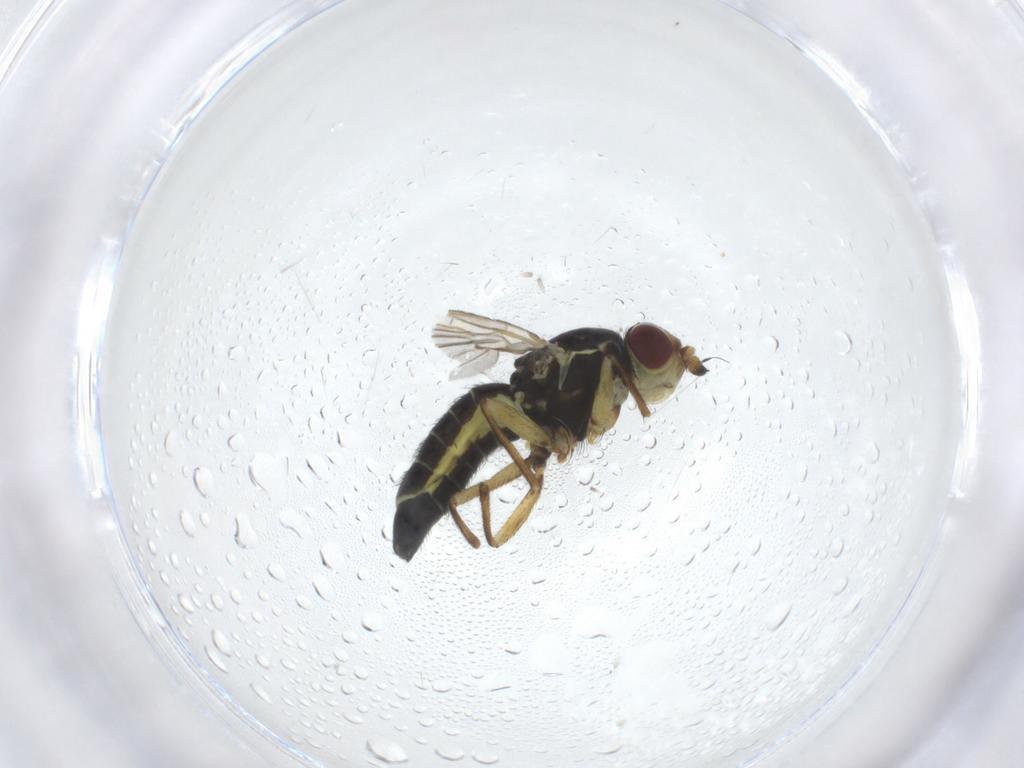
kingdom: Animalia
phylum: Arthropoda
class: Insecta
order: Diptera
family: Agromyzidae
